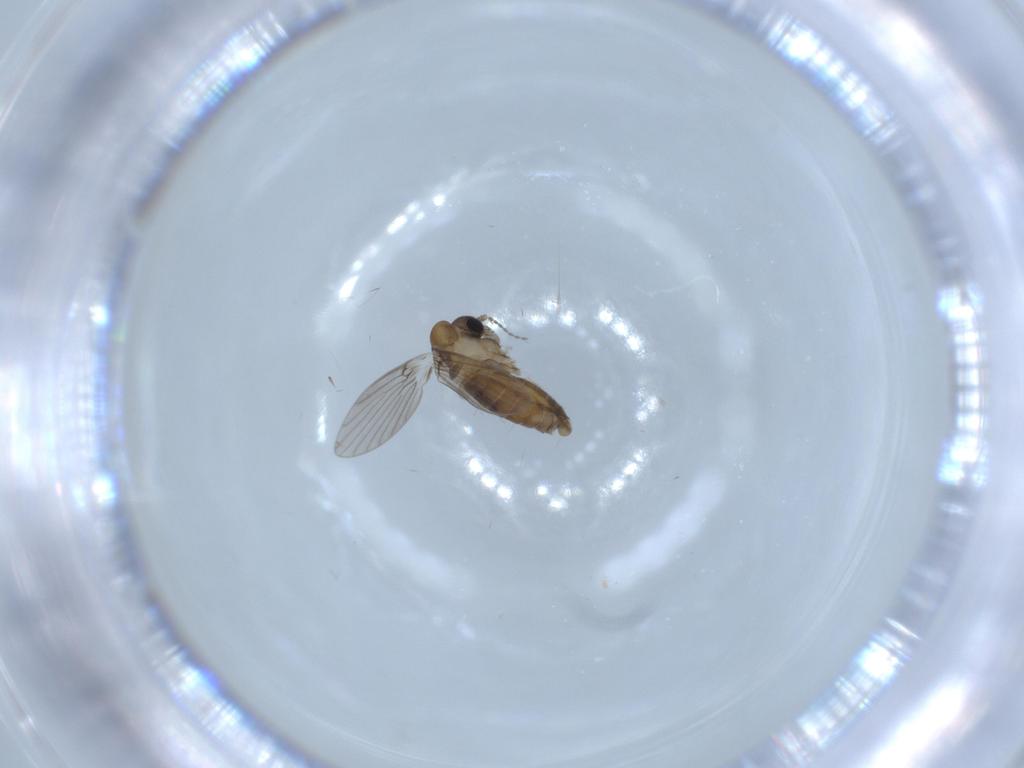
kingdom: Animalia
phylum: Arthropoda
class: Insecta
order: Diptera
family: Psychodidae
